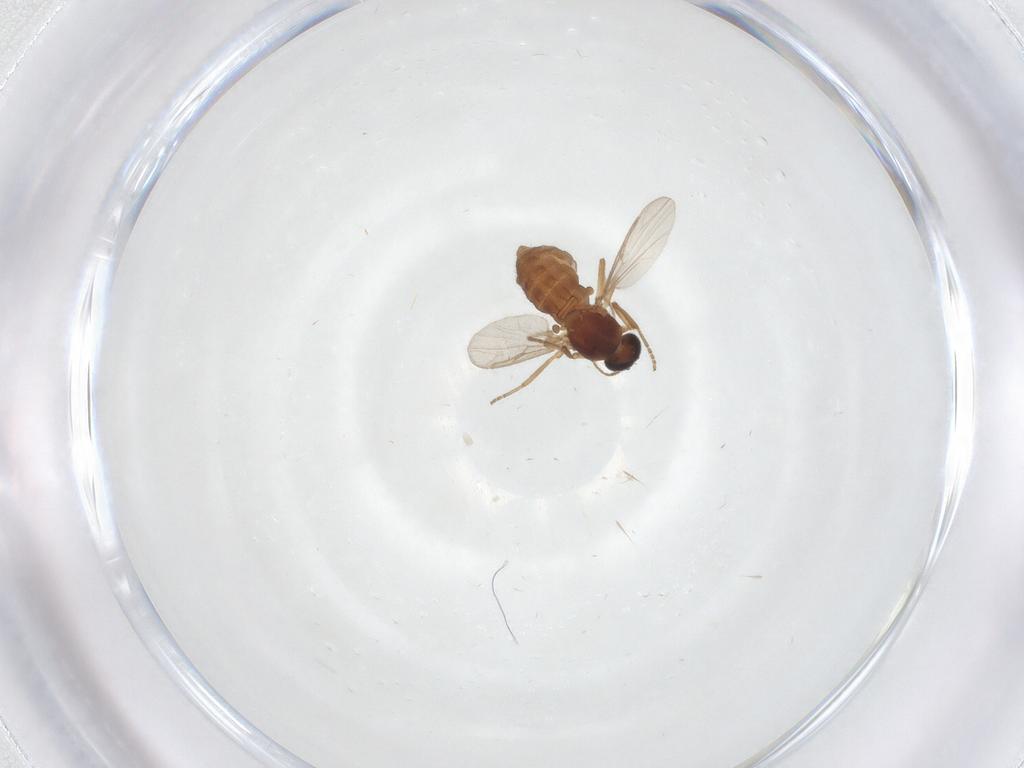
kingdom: Animalia
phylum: Arthropoda
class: Insecta
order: Diptera
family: Ceratopogonidae
